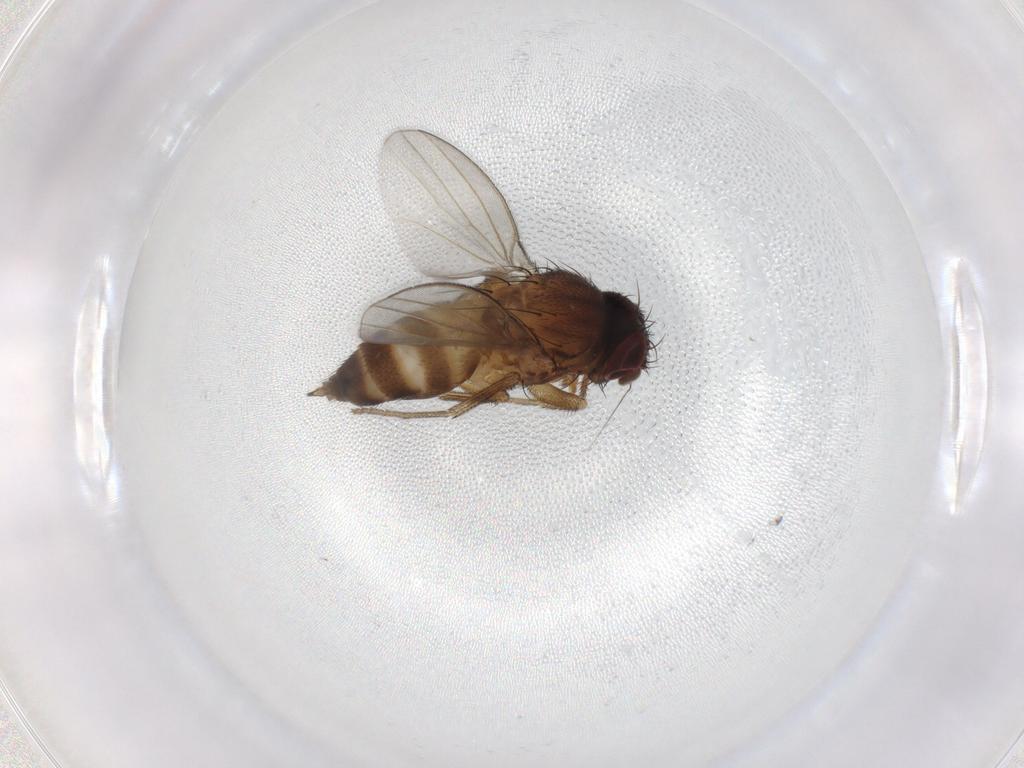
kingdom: Animalia
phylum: Arthropoda
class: Insecta
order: Diptera
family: Milichiidae
